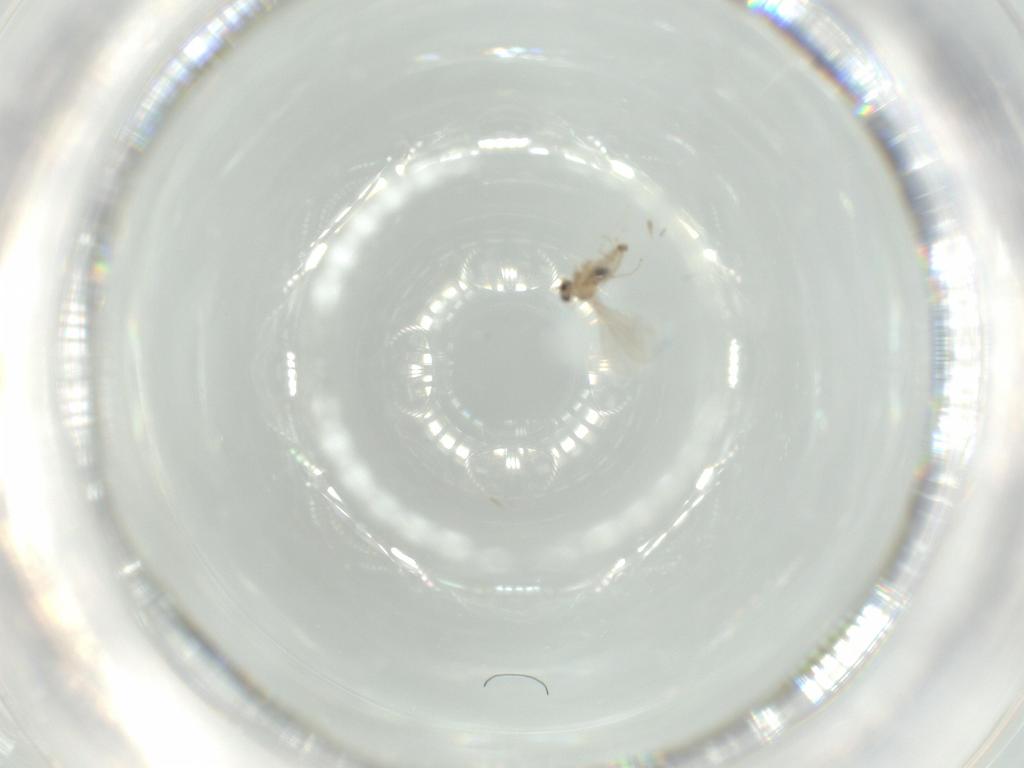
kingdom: Animalia
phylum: Arthropoda
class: Insecta
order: Diptera
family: Cecidomyiidae
